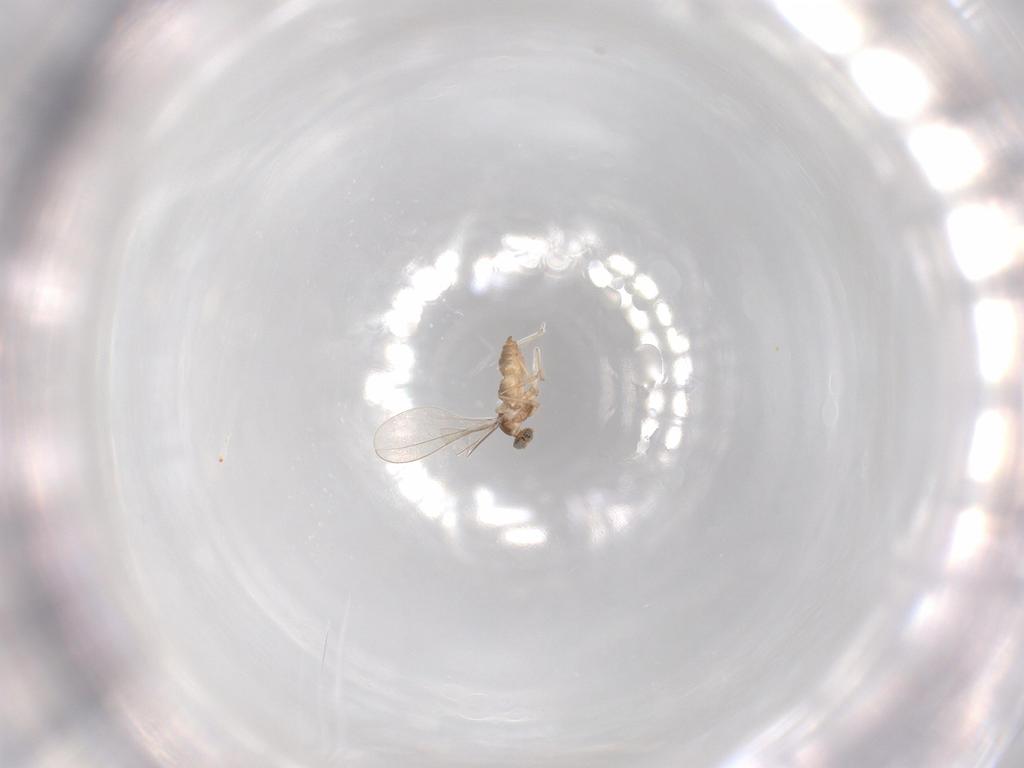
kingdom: Animalia
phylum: Arthropoda
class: Insecta
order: Diptera
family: Cecidomyiidae
